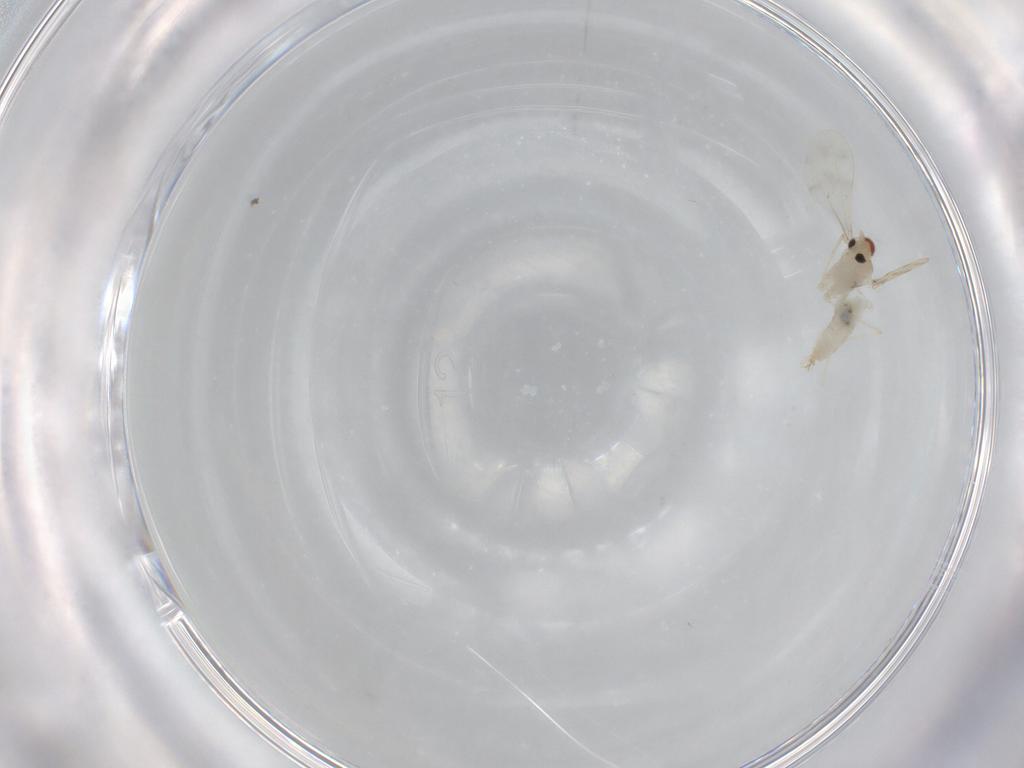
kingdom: Animalia
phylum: Arthropoda
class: Insecta
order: Diptera
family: Cecidomyiidae
